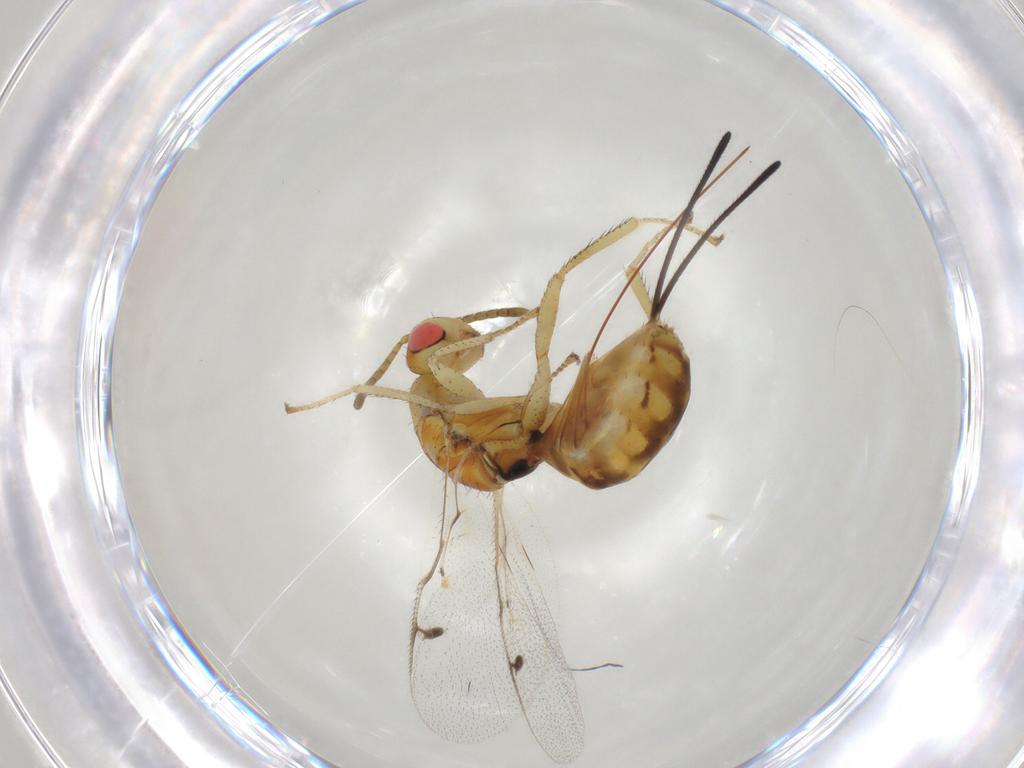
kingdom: Animalia
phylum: Arthropoda
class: Insecta
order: Hymenoptera
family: Megastigmidae
